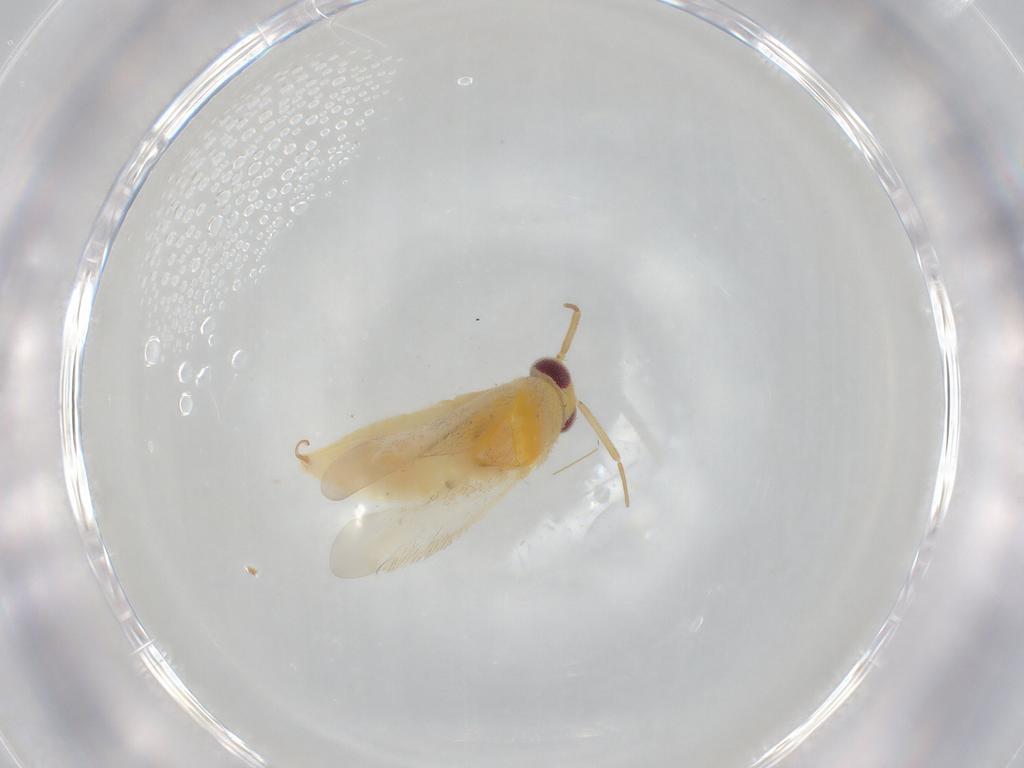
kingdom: Animalia
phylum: Arthropoda
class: Insecta
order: Hemiptera
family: Miridae
